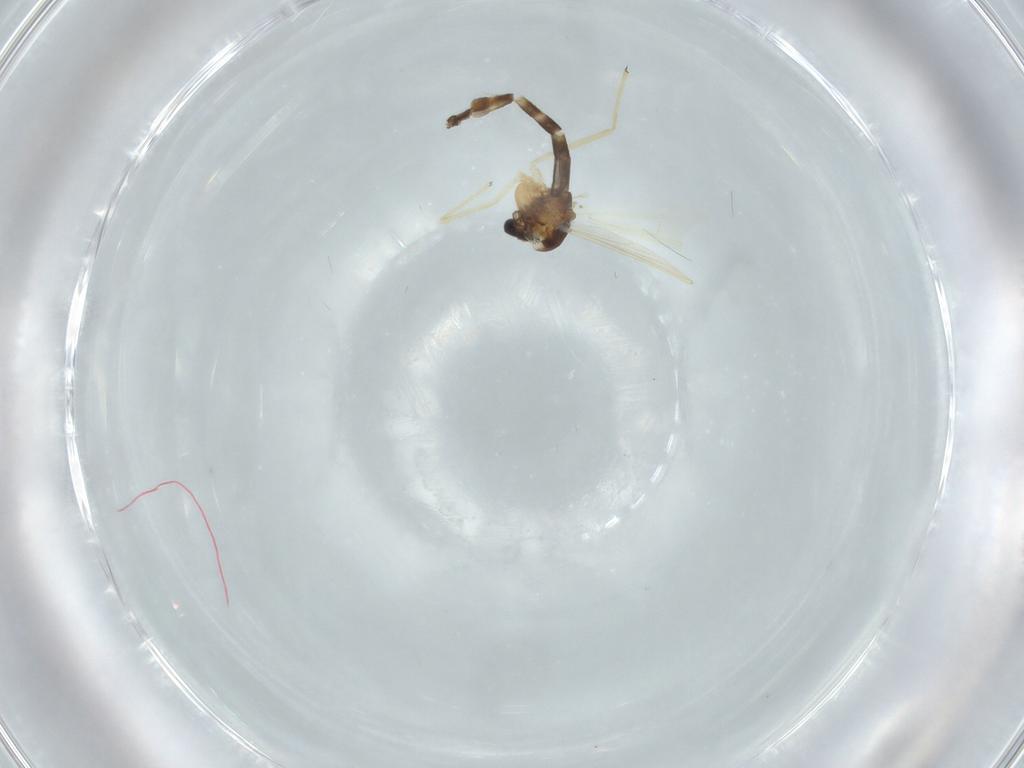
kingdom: Animalia
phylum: Arthropoda
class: Insecta
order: Diptera
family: Chironomidae
